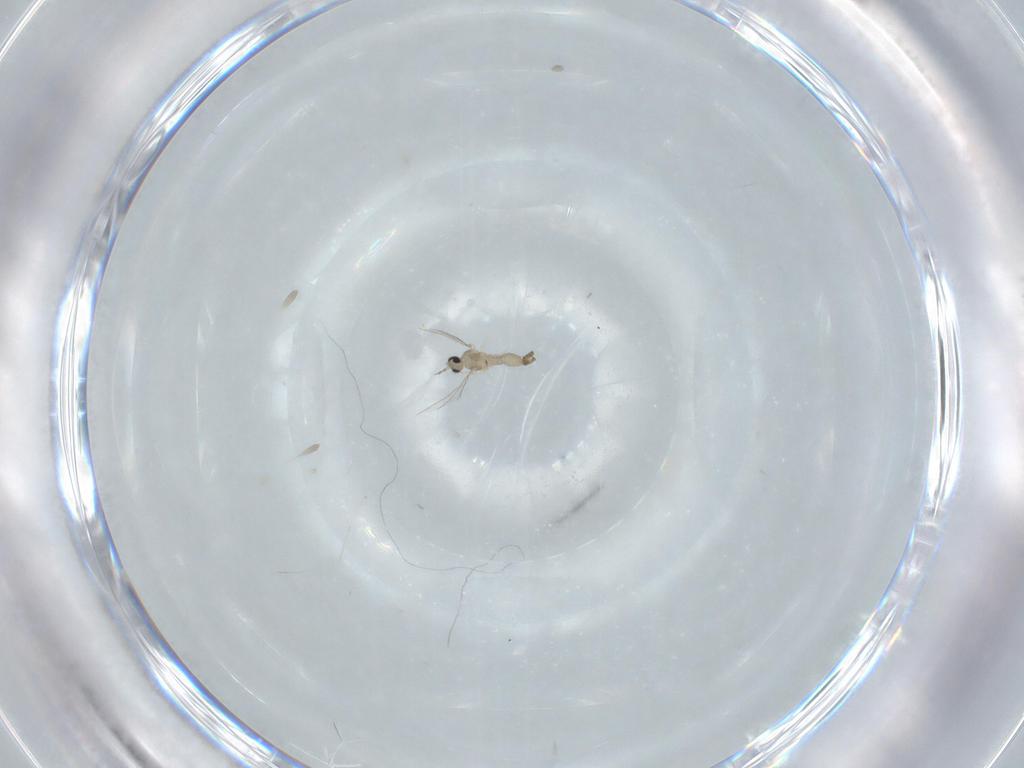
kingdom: Animalia
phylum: Arthropoda
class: Insecta
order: Diptera
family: Cecidomyiidae
